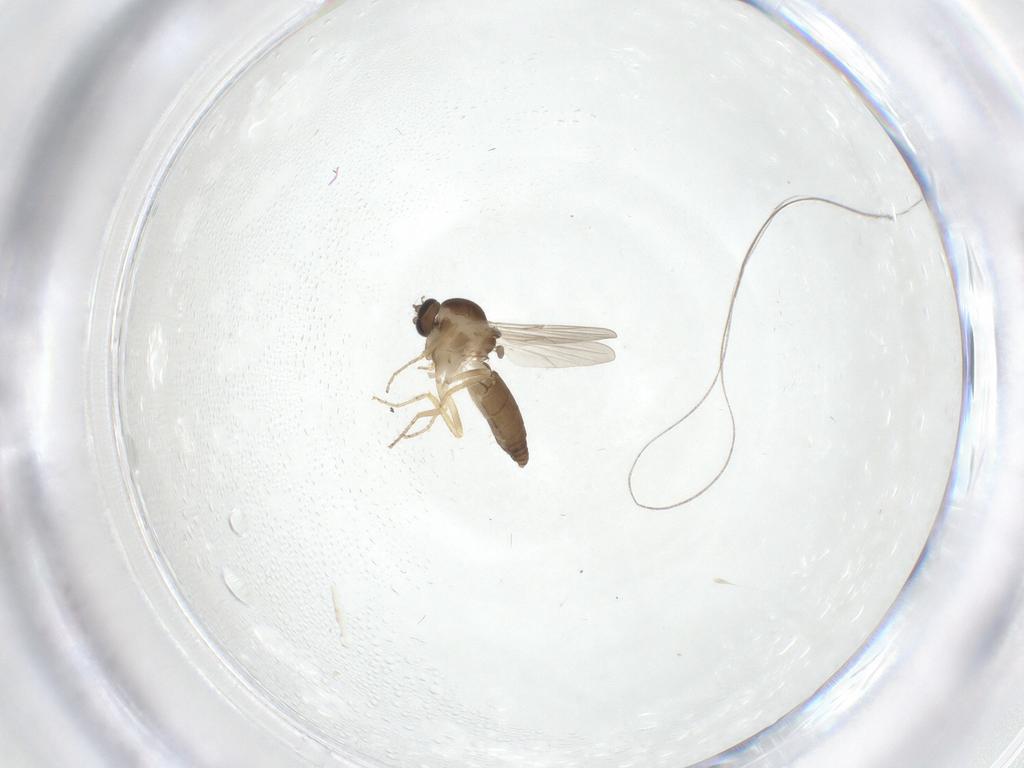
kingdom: Animalia
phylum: Arthropoda
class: Insecta
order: Diptera
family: Ceratopogonidae
